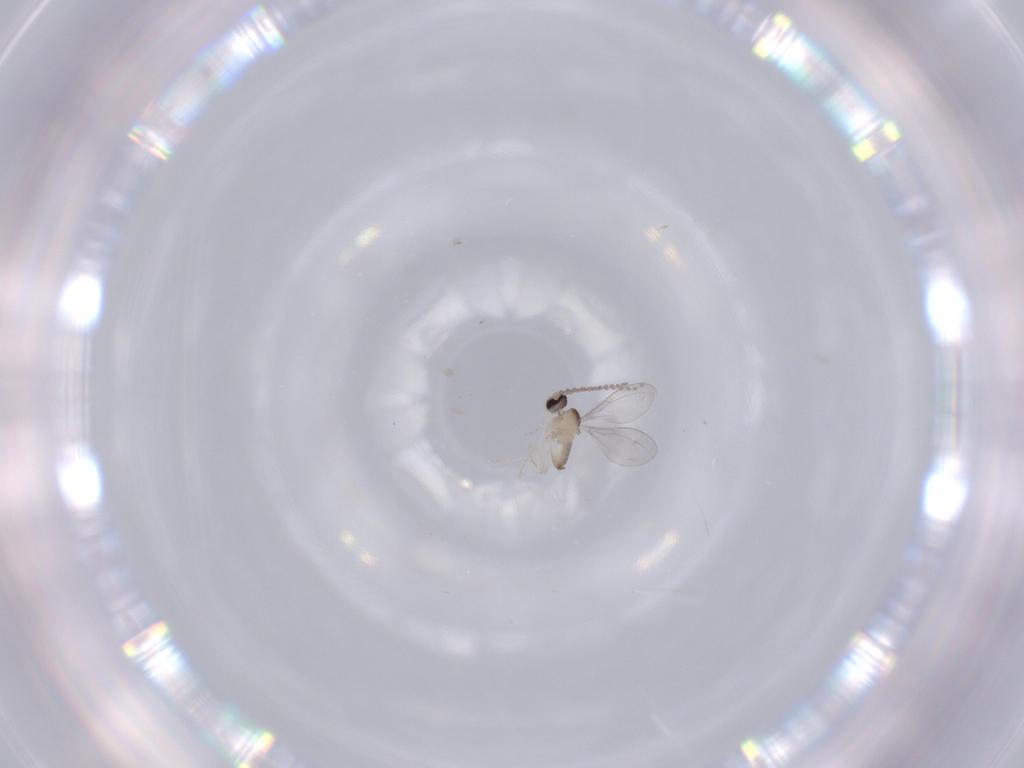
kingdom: Animalia
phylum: Arthropoda
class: Insecta
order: Diptera
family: Cecidomyiidae
